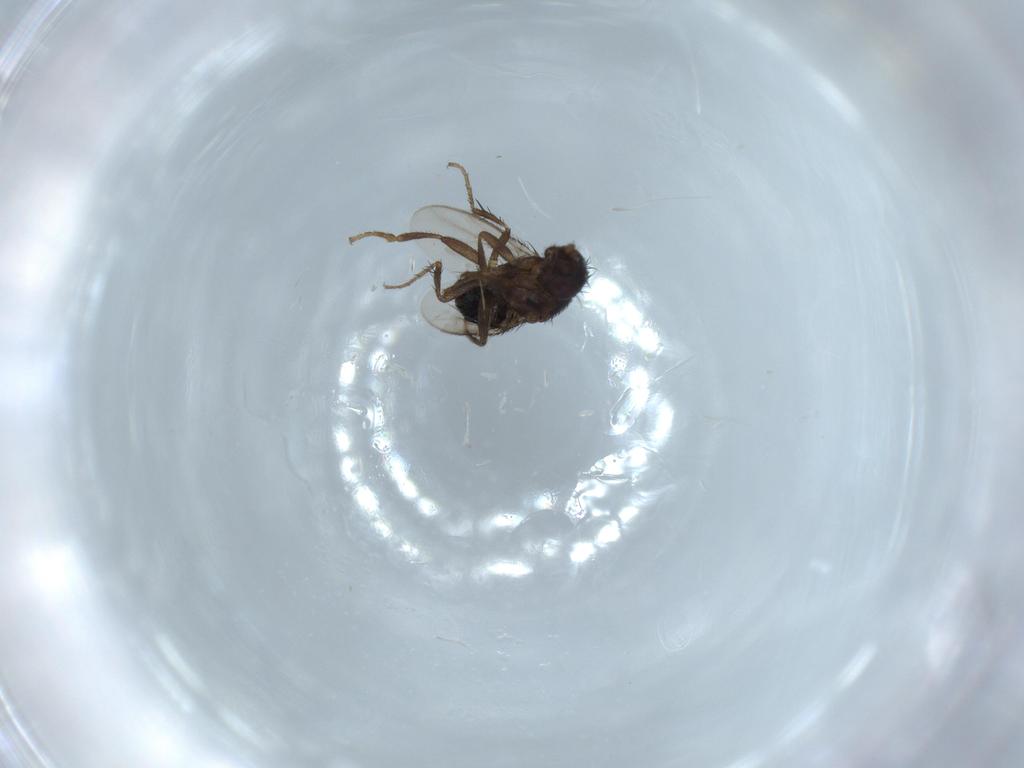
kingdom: Animalia
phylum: Arthropoda
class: Insecta
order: Diptera
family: Sphaeroceridae
